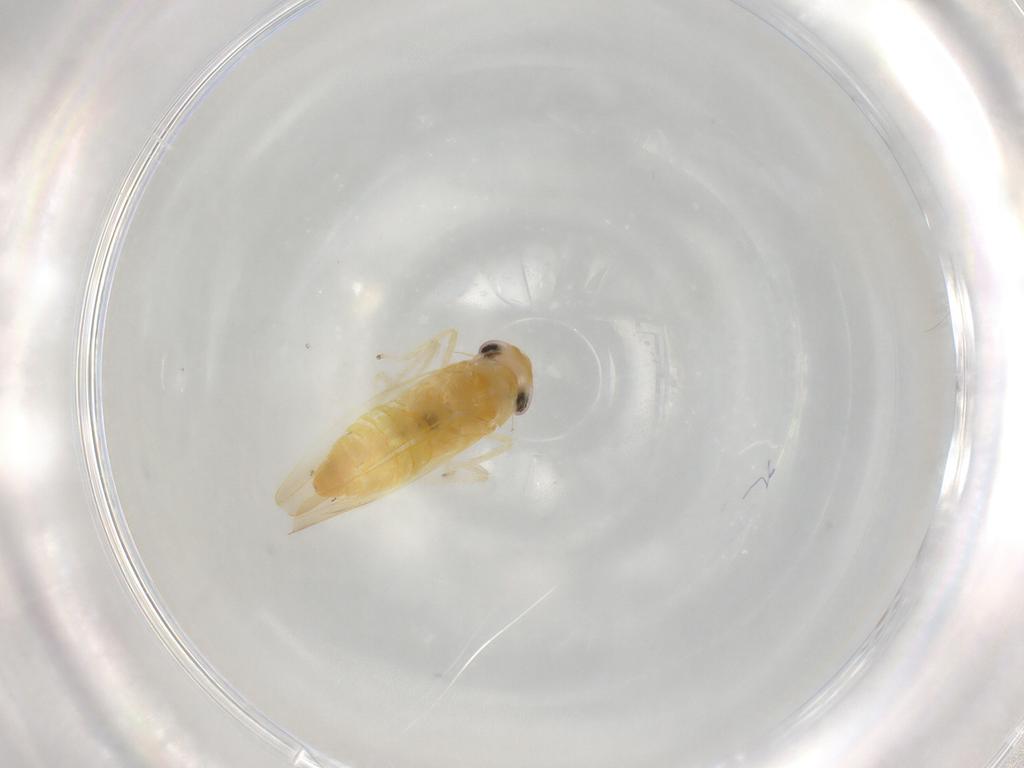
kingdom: Animalia
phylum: Arthropoda
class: Insecta
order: Hemiptera
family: Cicadellidae
